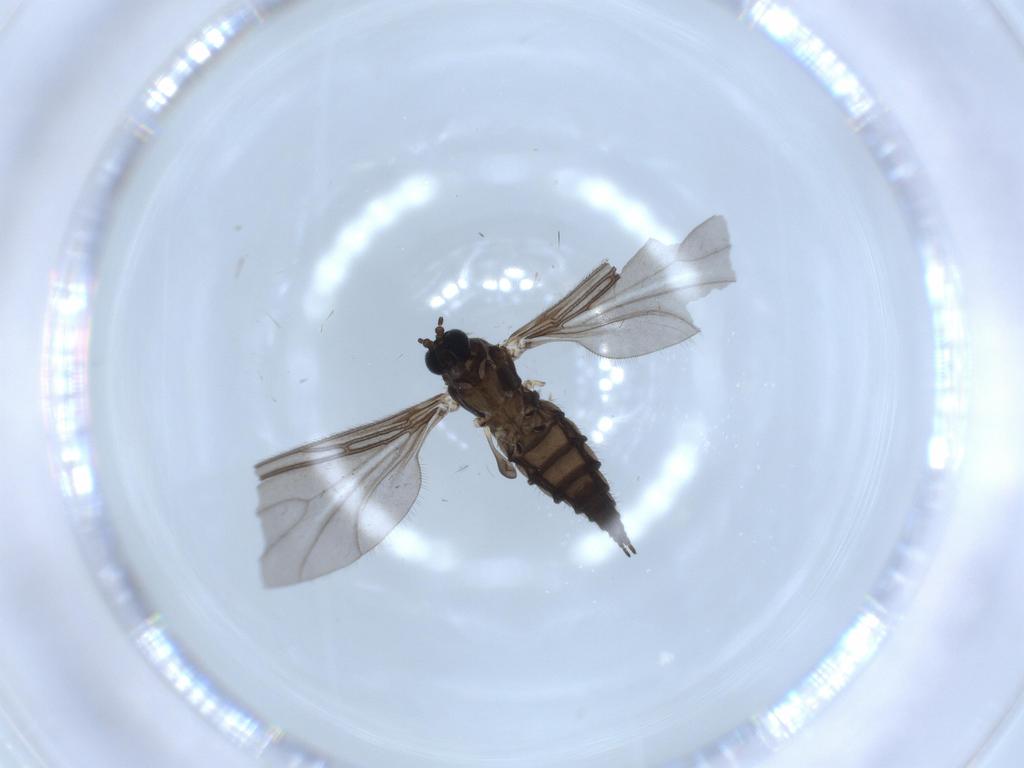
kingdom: Animalia
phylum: Arthropoda
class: Insecta
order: Diptera
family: Sciaridae
